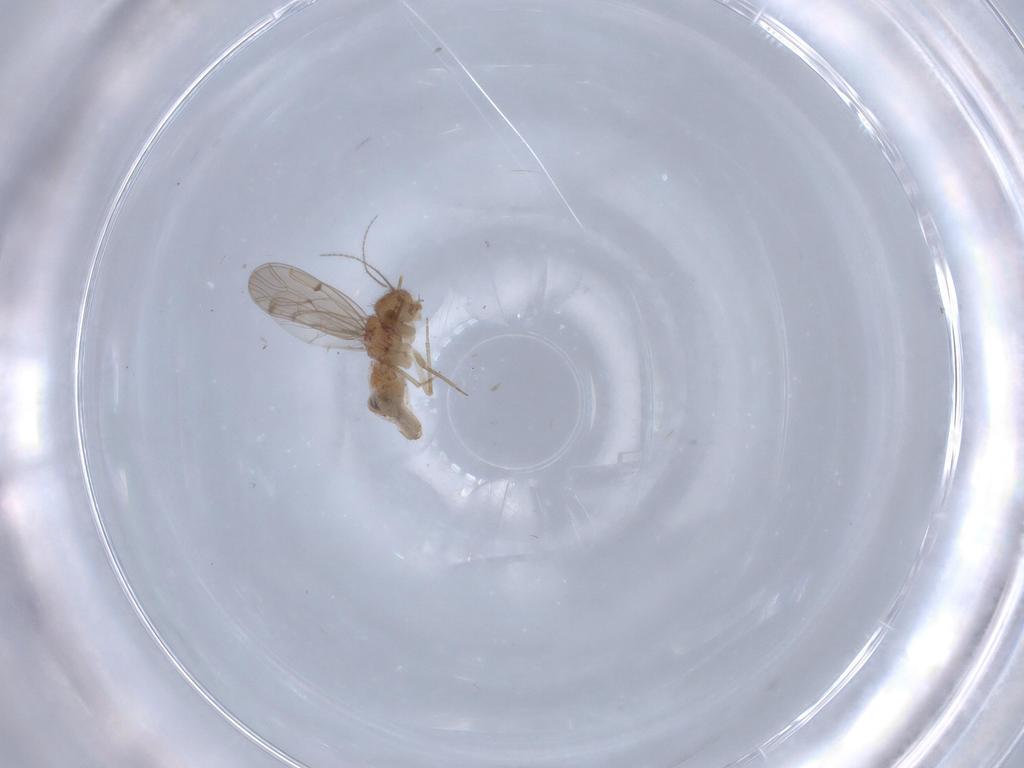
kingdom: Animalia
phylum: Arthropoda
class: Insecta
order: Psocodea
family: Ectopsocidae
